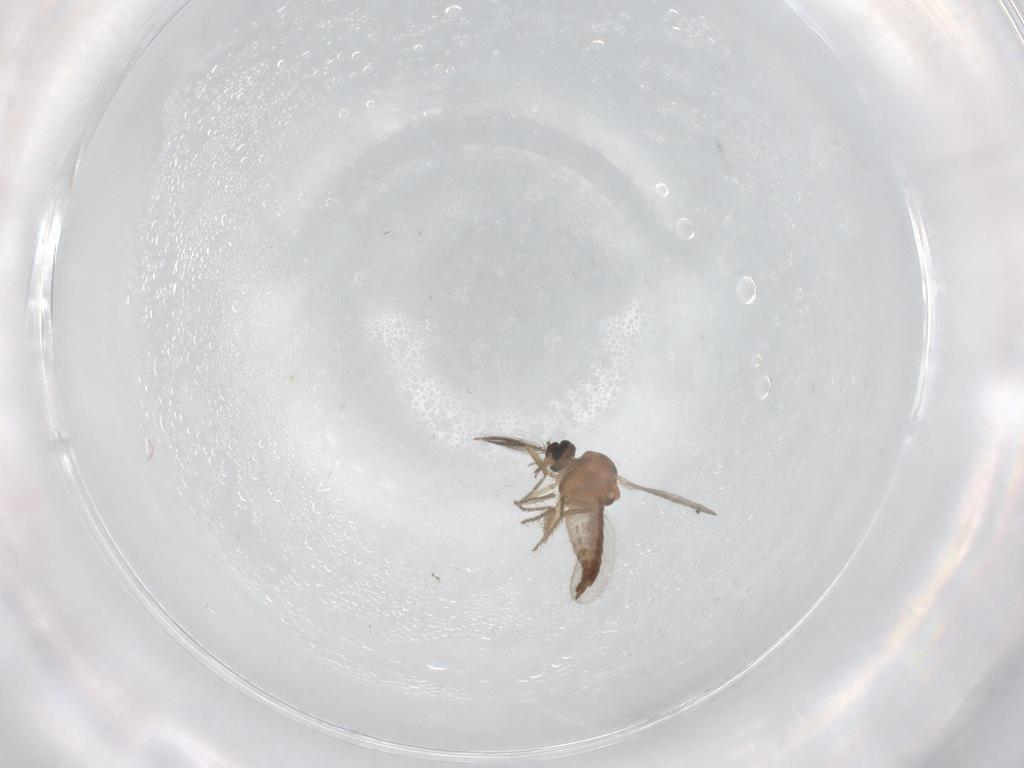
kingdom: Animalia
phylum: Arthropoda
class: Insecta
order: Diptera
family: Ceratopogonidae
